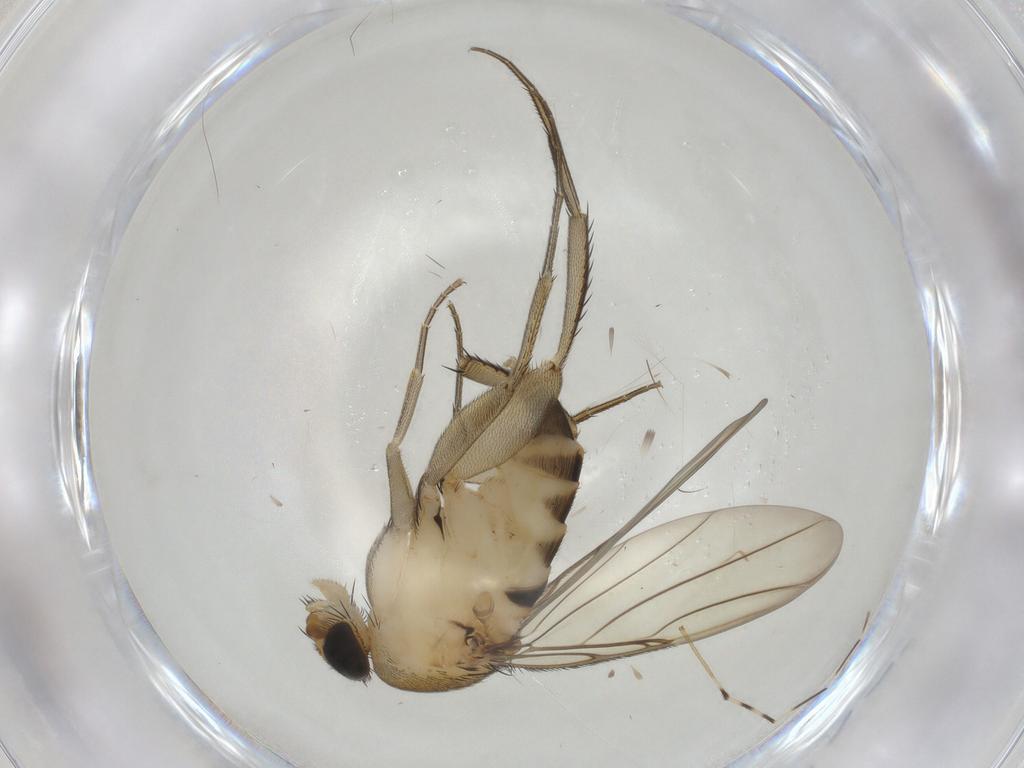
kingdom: Animalia
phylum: Arthropoda
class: Insecta
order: Diptera
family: Phoridae
